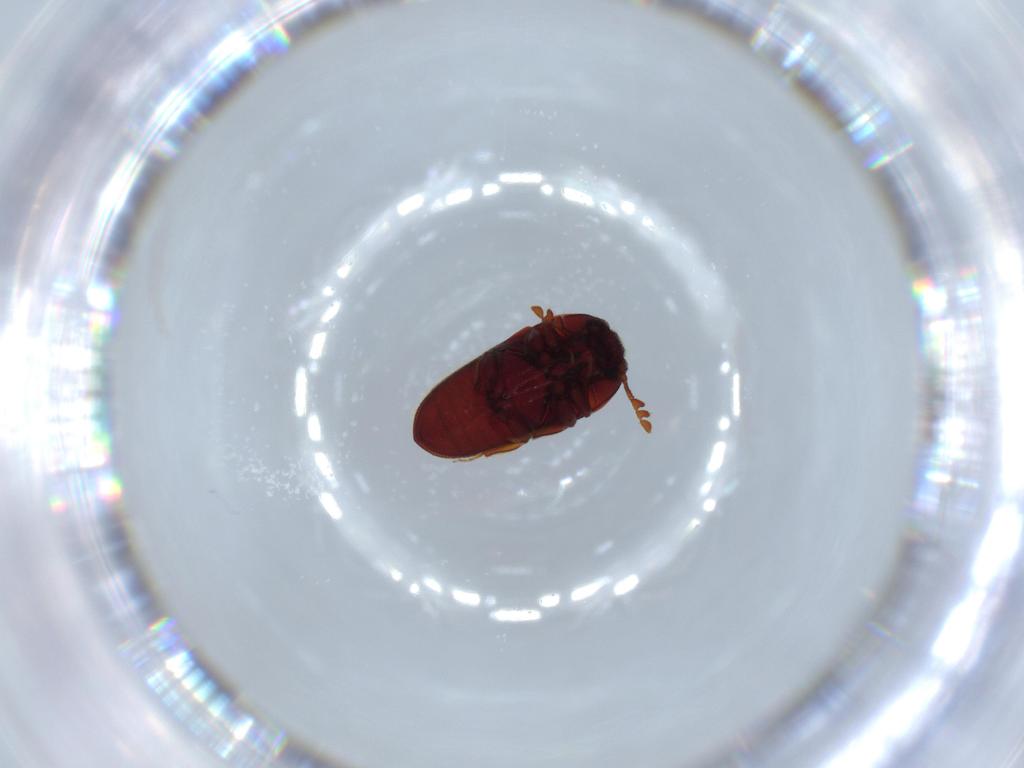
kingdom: Animalia
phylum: Arthropoda
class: Insecta
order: Coleoptera
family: Throscidae
